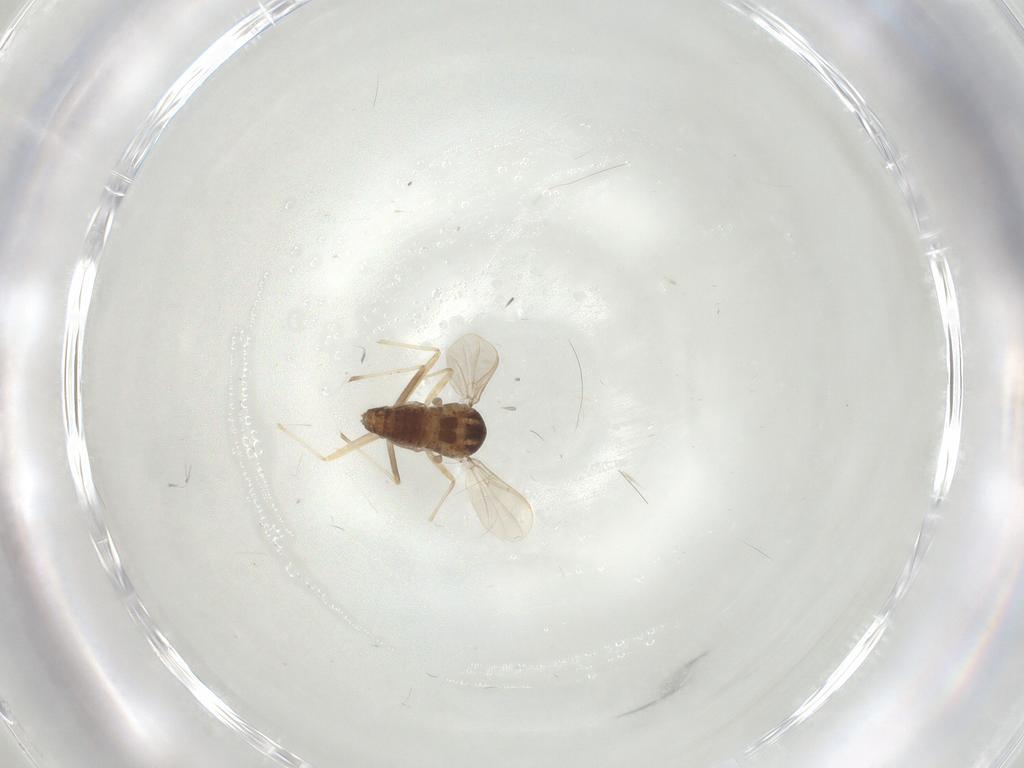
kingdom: Animalia
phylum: Arthropoda
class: Insecta
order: Diptera
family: Chironomidae
